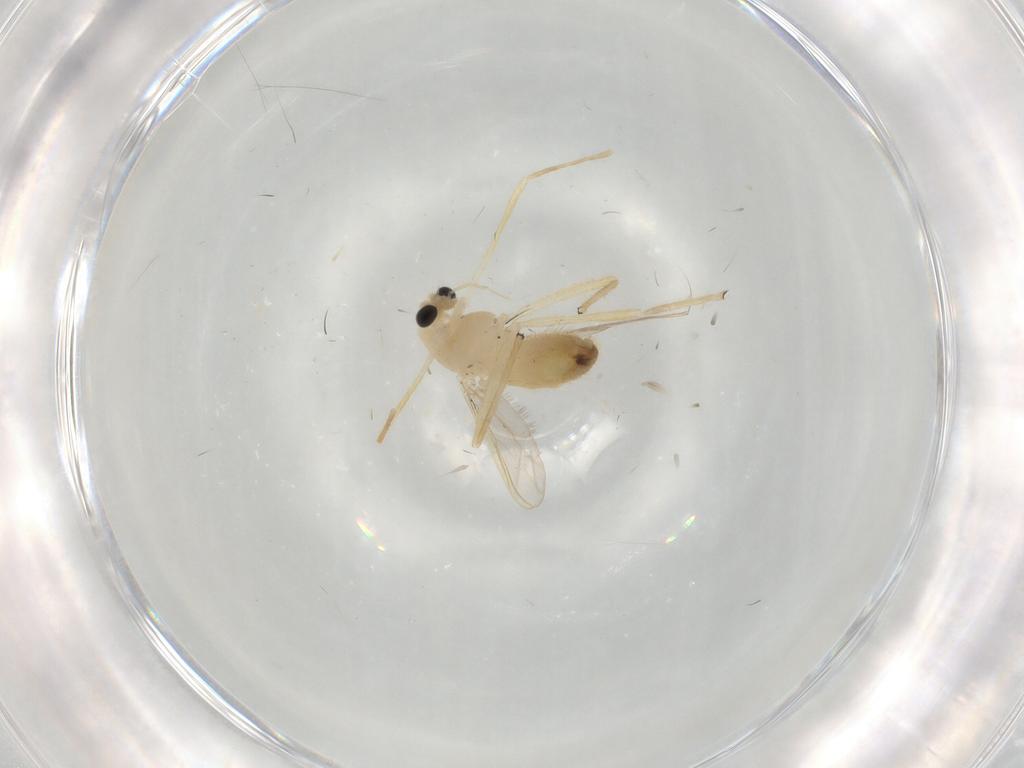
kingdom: Animalia
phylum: Arthropoda
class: Insecta
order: Diptera
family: Chironomidae
